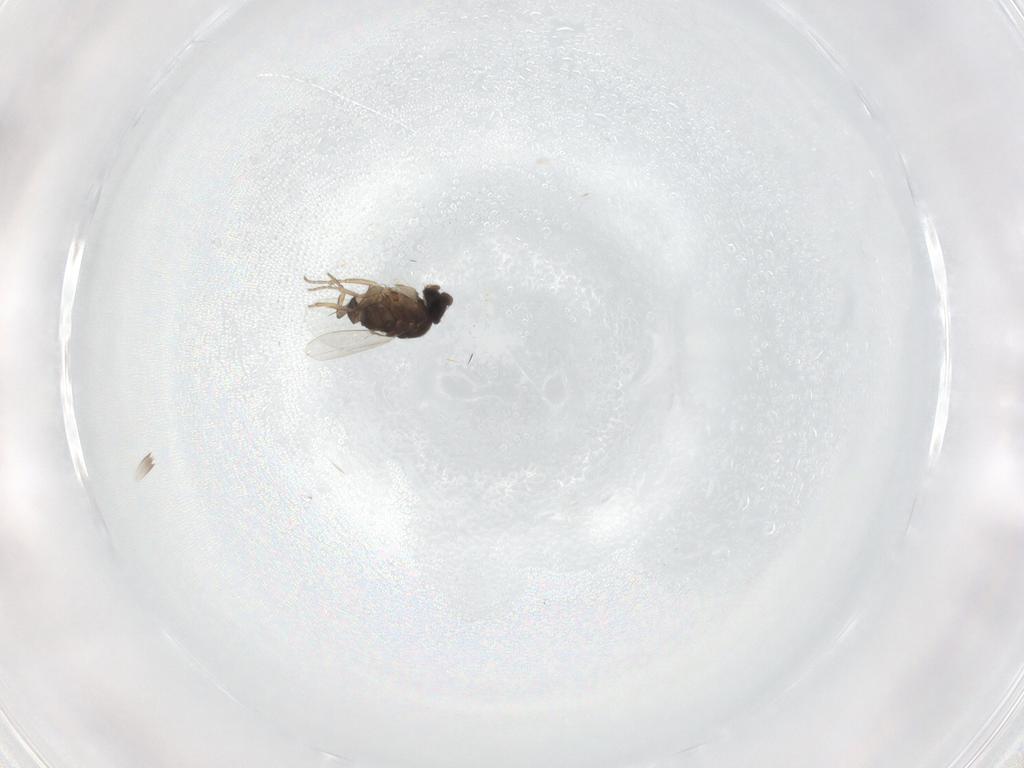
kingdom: Animalia
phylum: Arthropoda
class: Insecta
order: Diptera
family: Phoridae
